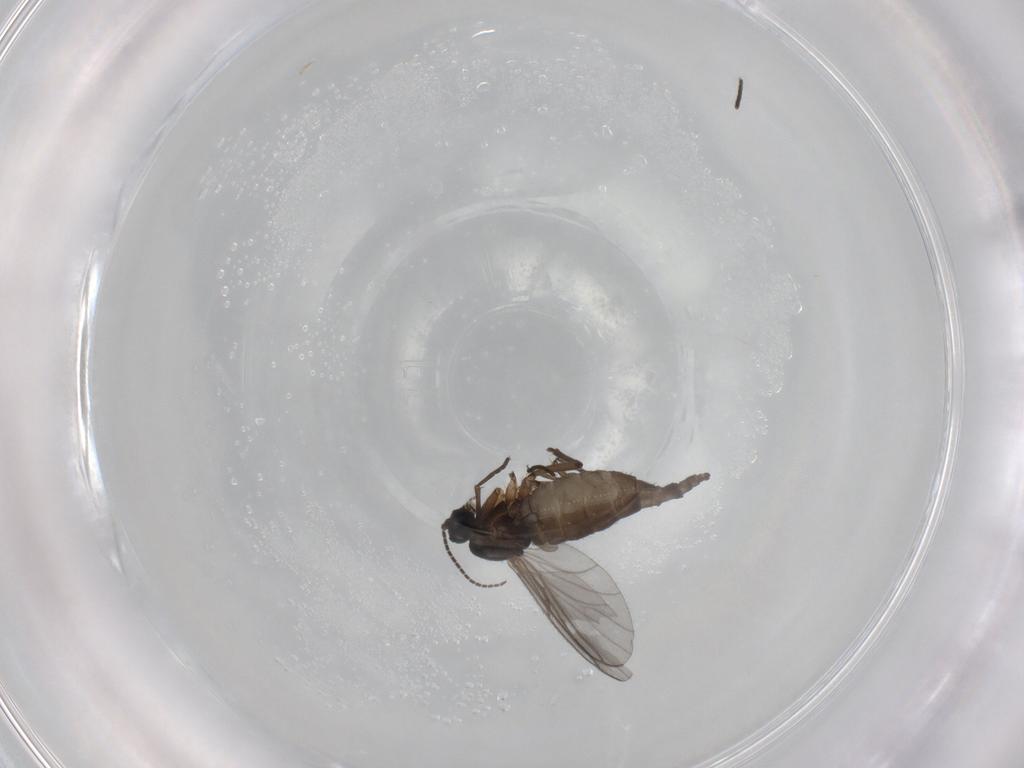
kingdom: Animalia
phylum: Arthropoda
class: Insecta
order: Diptera
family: Sciaridae
